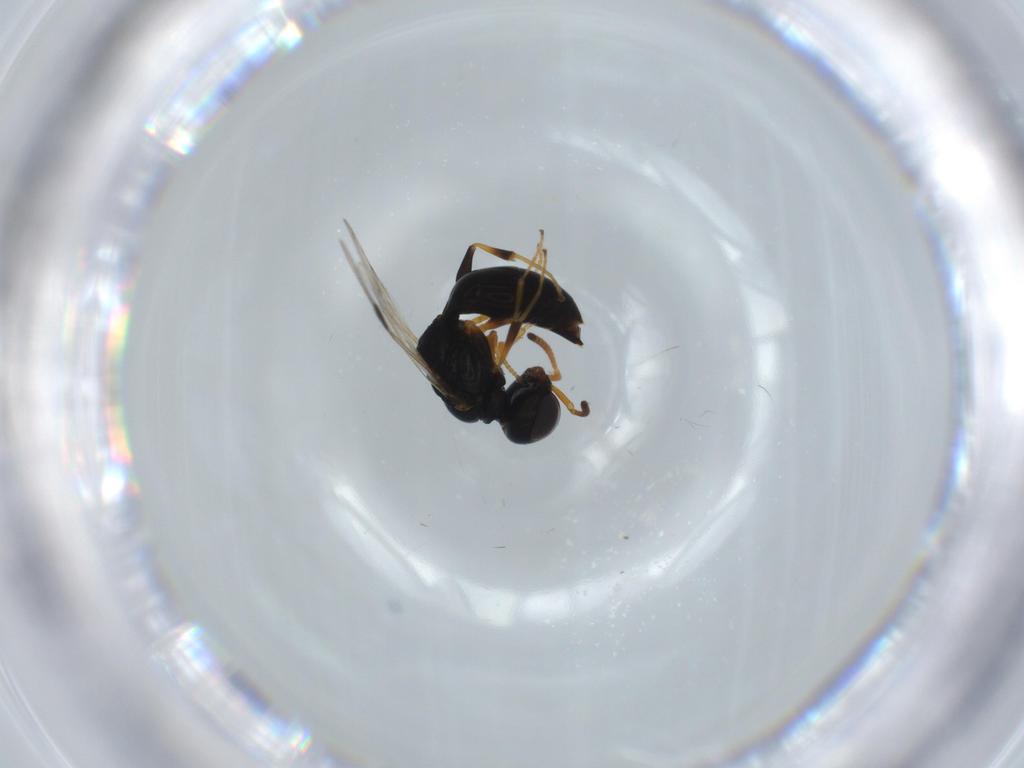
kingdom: Animalia
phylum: Arthropoda
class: Insecta
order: Hymenoptera
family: Pemphredonidae
